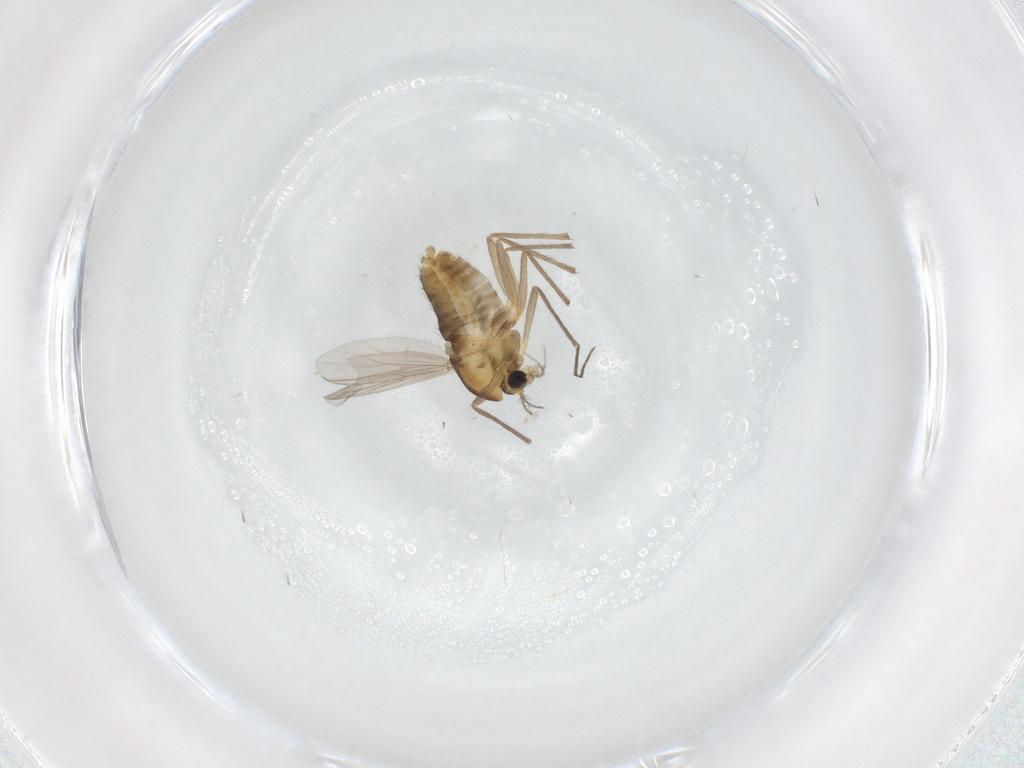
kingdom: Animalia
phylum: Arthropoda
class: Insecta
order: Diptera
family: Chironomidae
